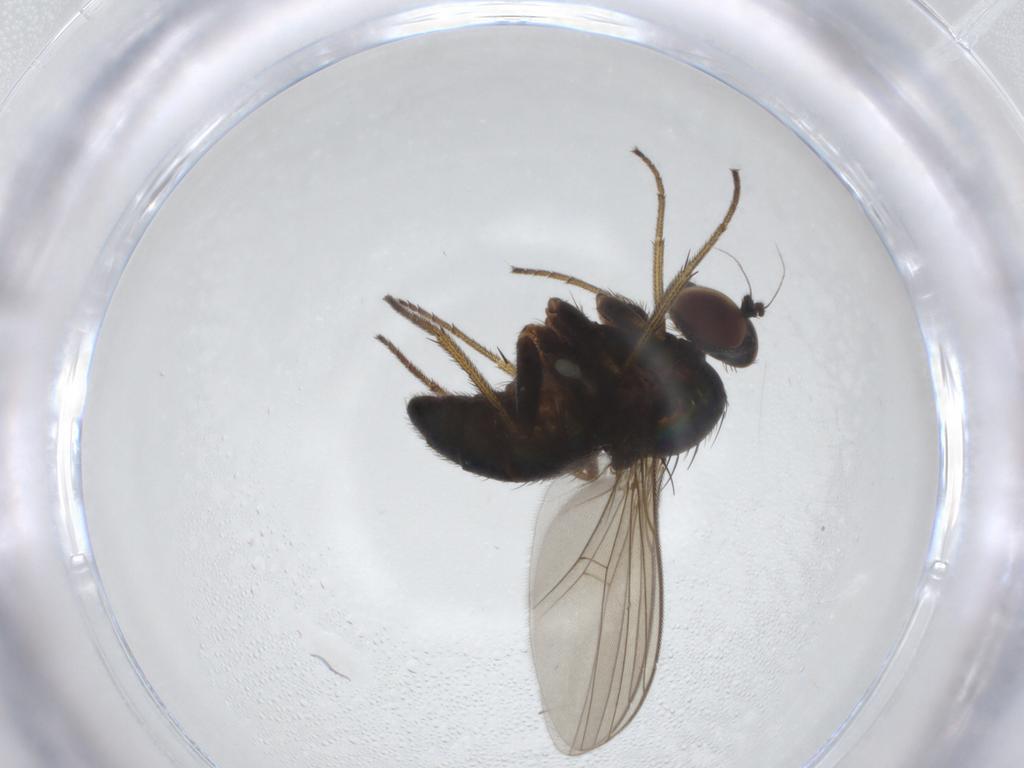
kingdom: Animalia
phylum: Arthropoda
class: Insecta
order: Diptera
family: Dolichopodidae
